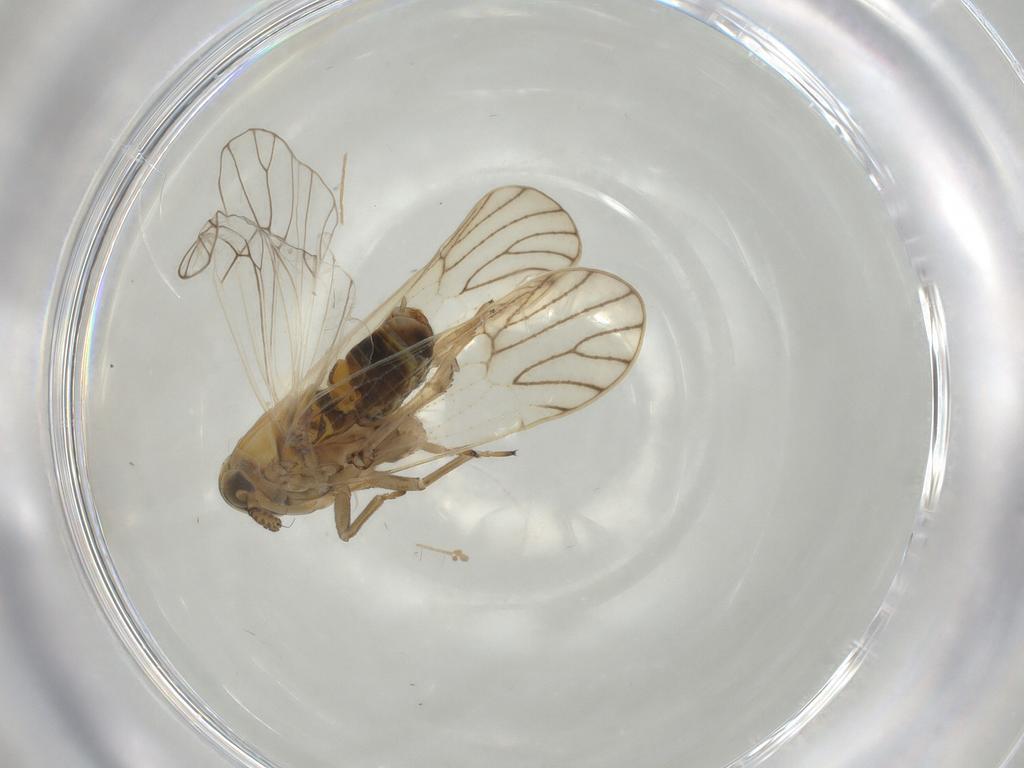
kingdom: Animalia
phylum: Arthropoda
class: Insecta
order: Hemiptera
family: Delphacidae
